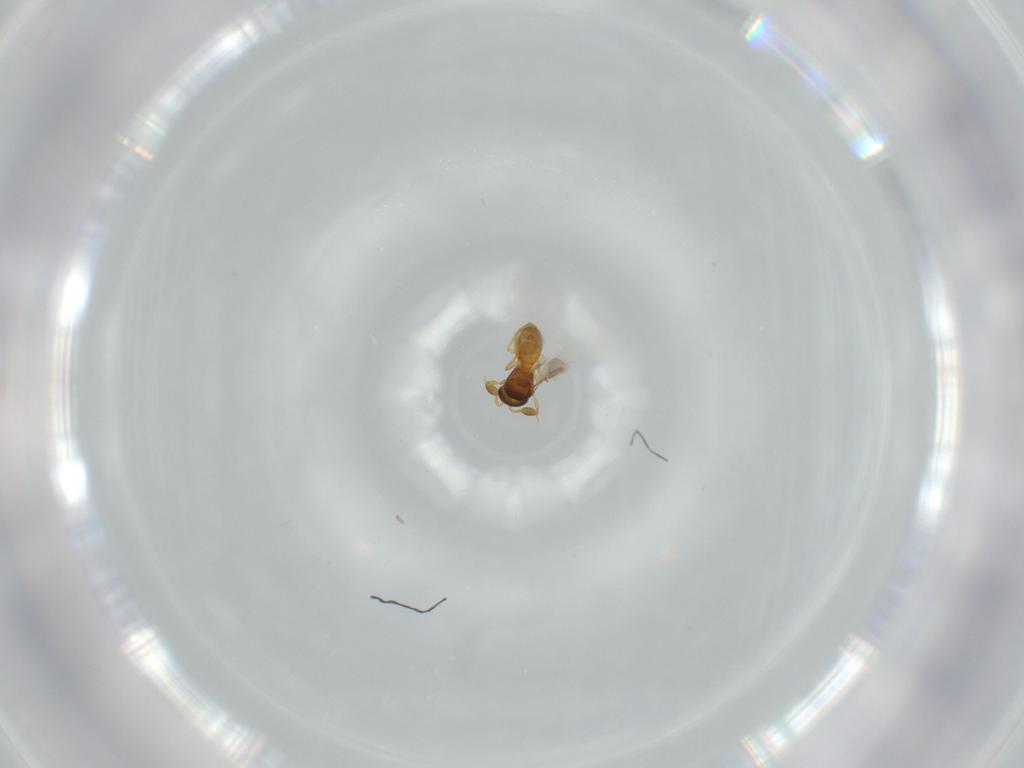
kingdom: Animalia
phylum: Arthropoda
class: Insecta
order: Hymenoptera
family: Scelionidae
